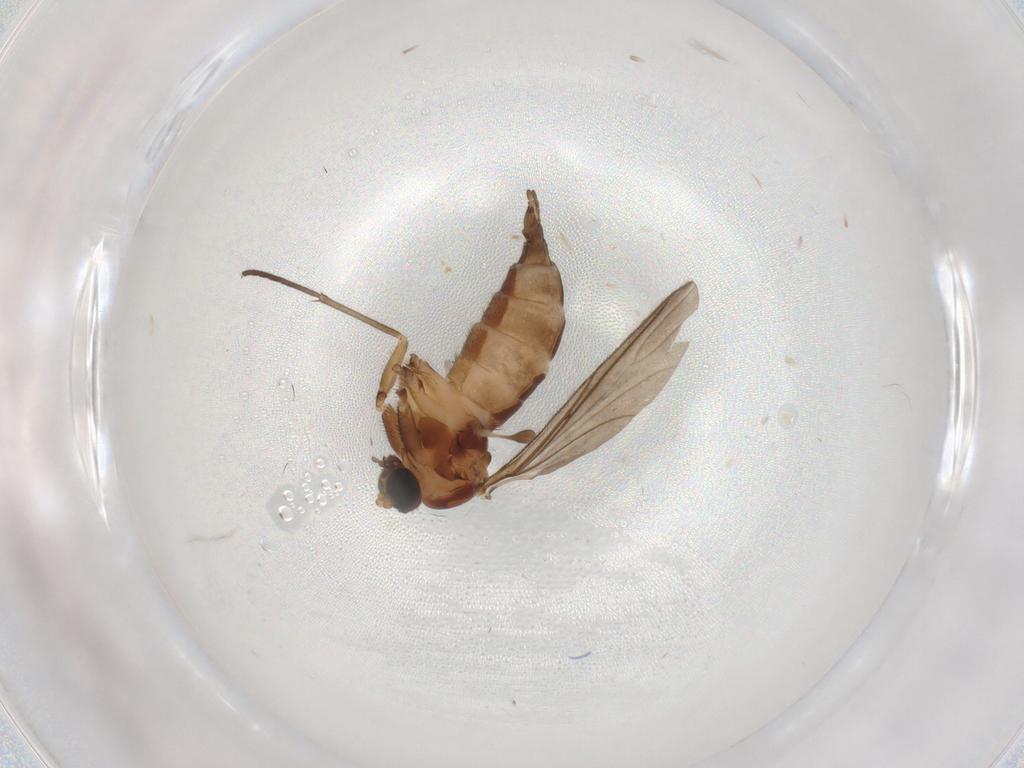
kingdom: Animalia
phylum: Arthropoda
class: Insecta
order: Diptera
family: Sciaridae
